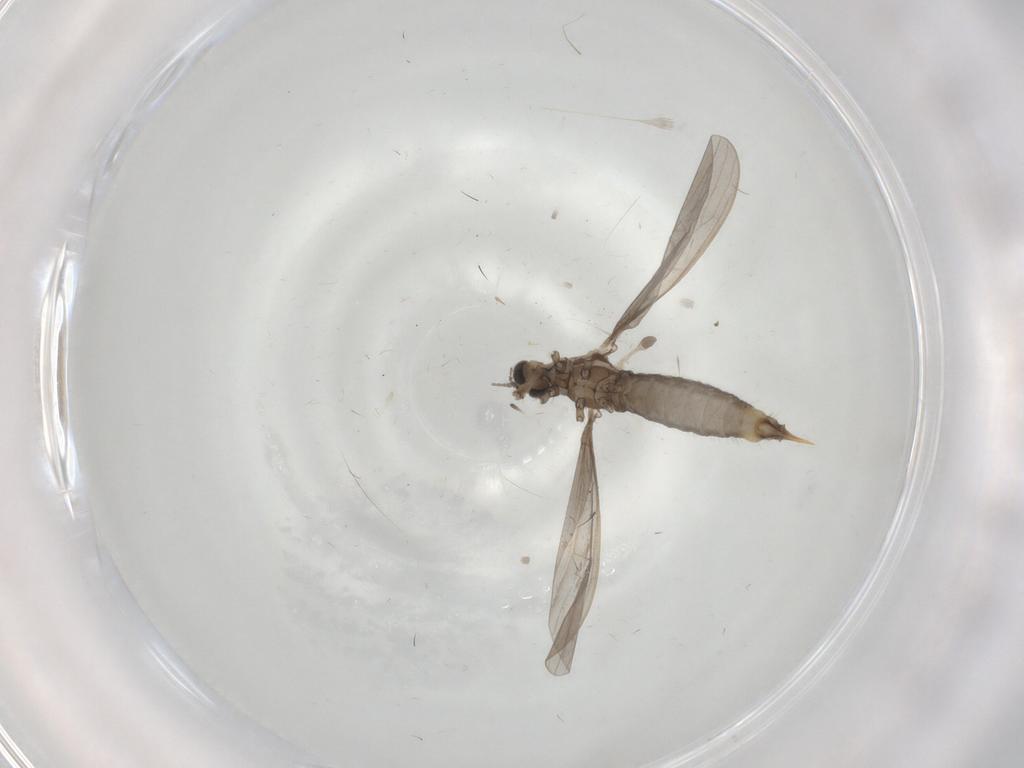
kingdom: Animalia
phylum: Arthropoda
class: Insecta
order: Diptera
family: Limoniidae
